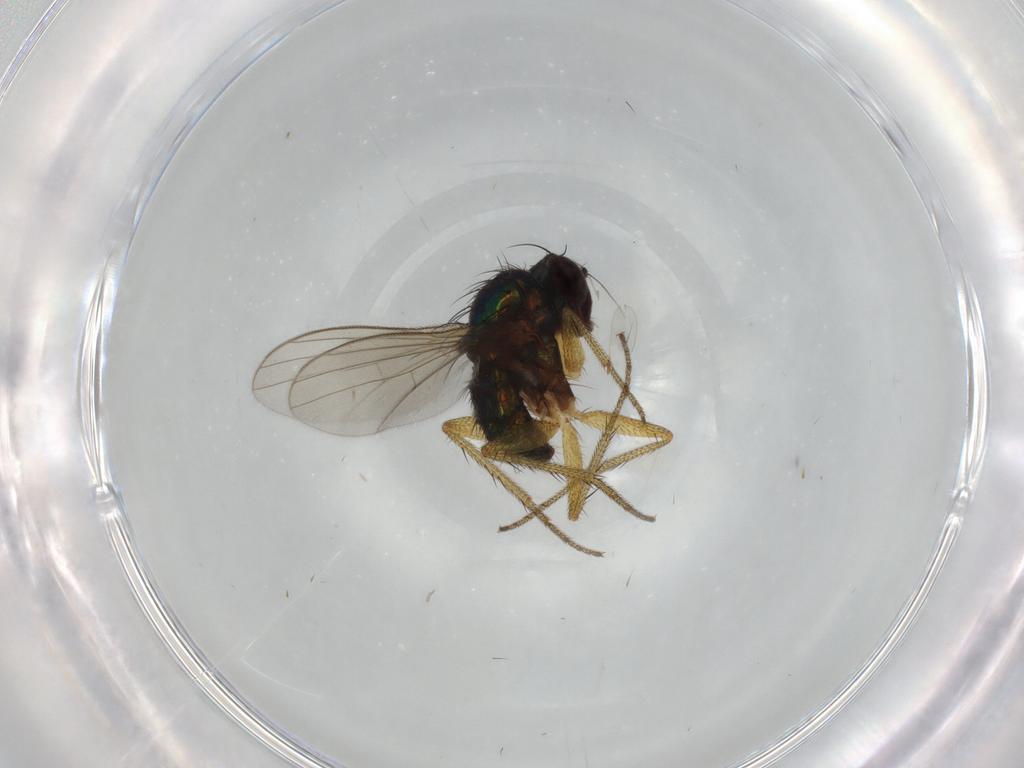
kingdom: Animalia
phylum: Arthropoda
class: Insecta
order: Diptera
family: Dolichopodidae
